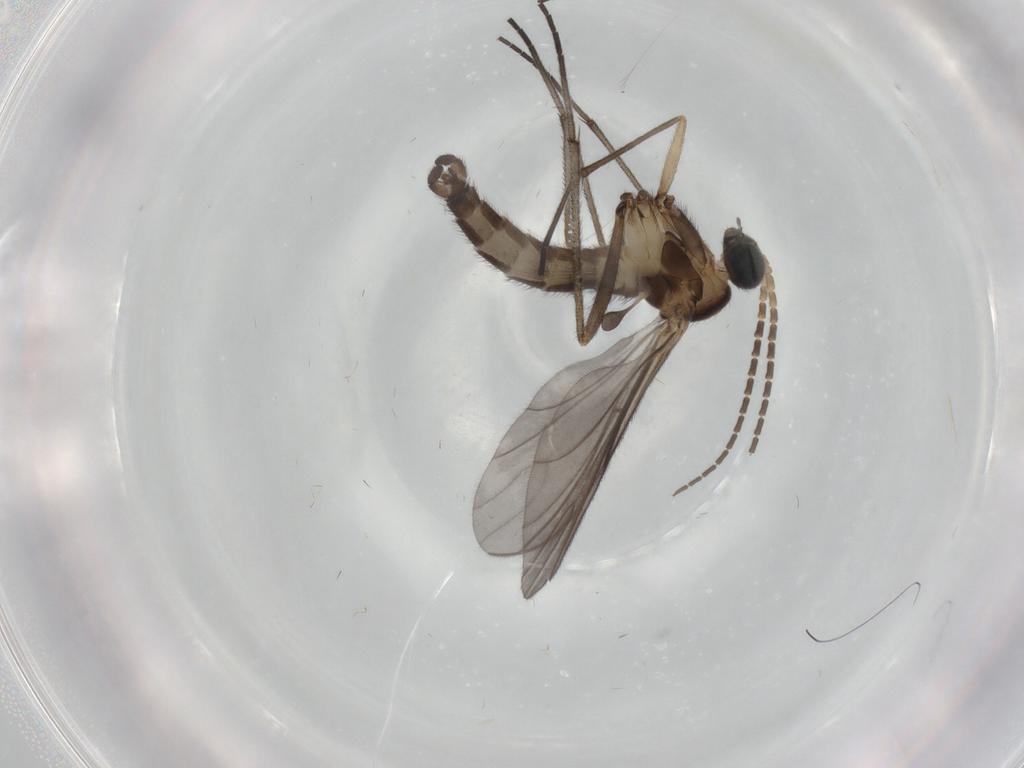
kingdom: Animalia
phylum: Arthropoda
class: Insecta
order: Diptera
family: Sciaridae
